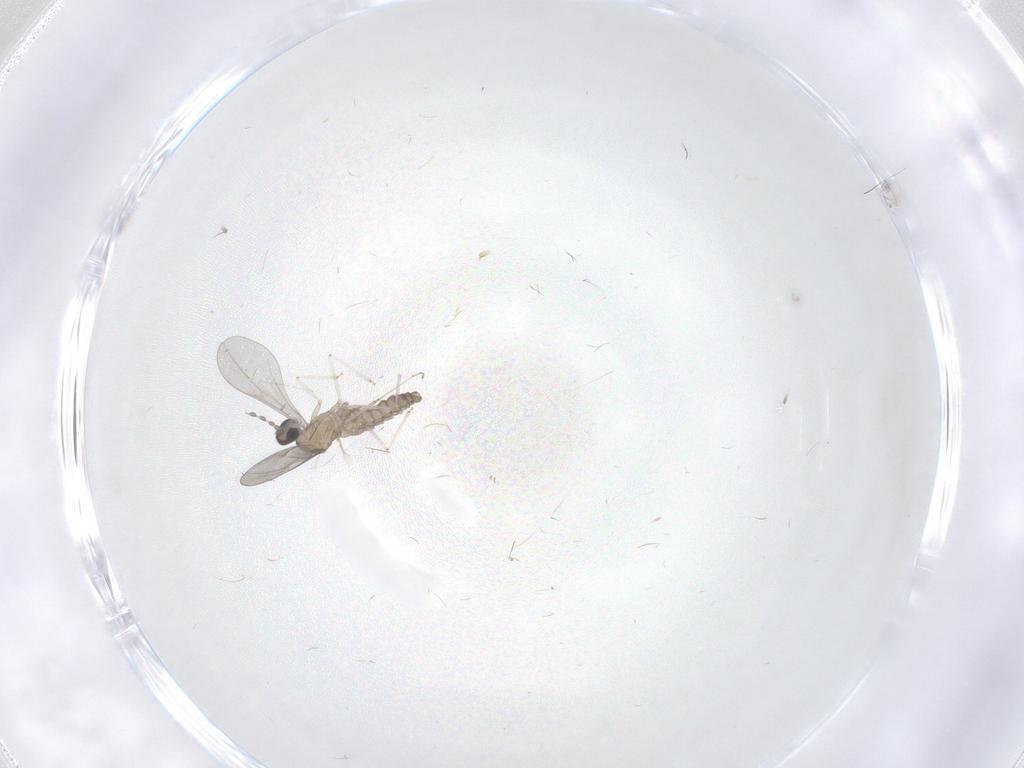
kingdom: Animalia
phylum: Arthropoda
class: Insecta
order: Diptera
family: Cecidomyiidae
